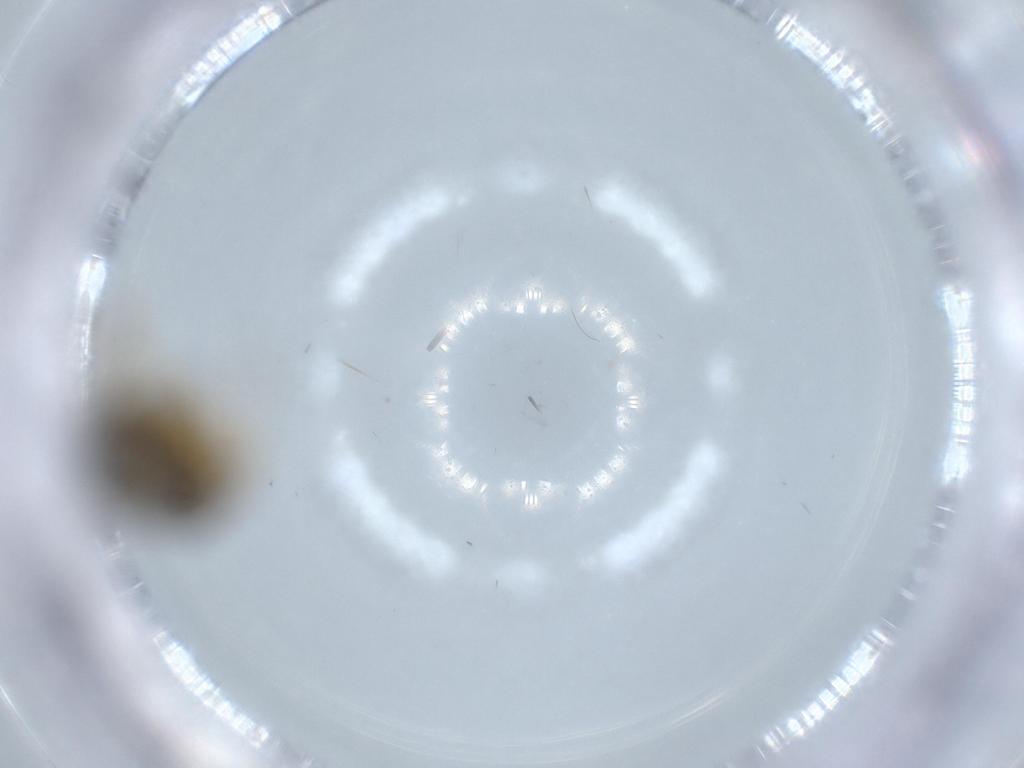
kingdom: Animalia
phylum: Arthropoda
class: Insecta
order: Hymenoptera
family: Formicidae
